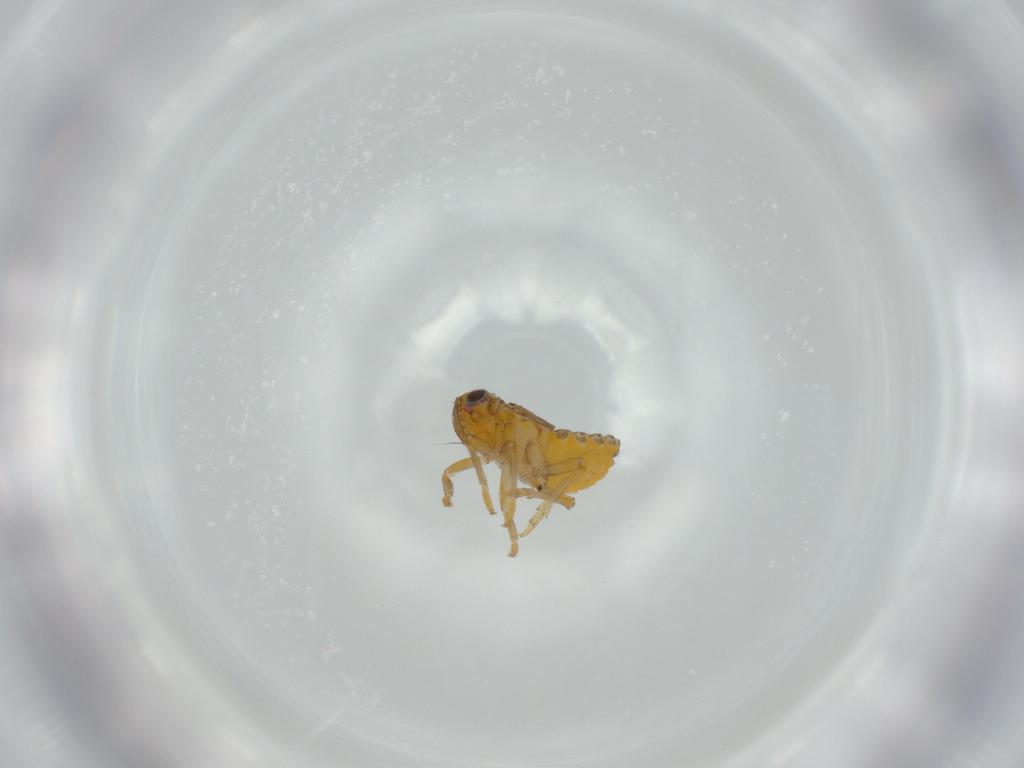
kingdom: Animalia
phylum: Arthropoda
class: Insecta
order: Hemiptera
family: Issidae
